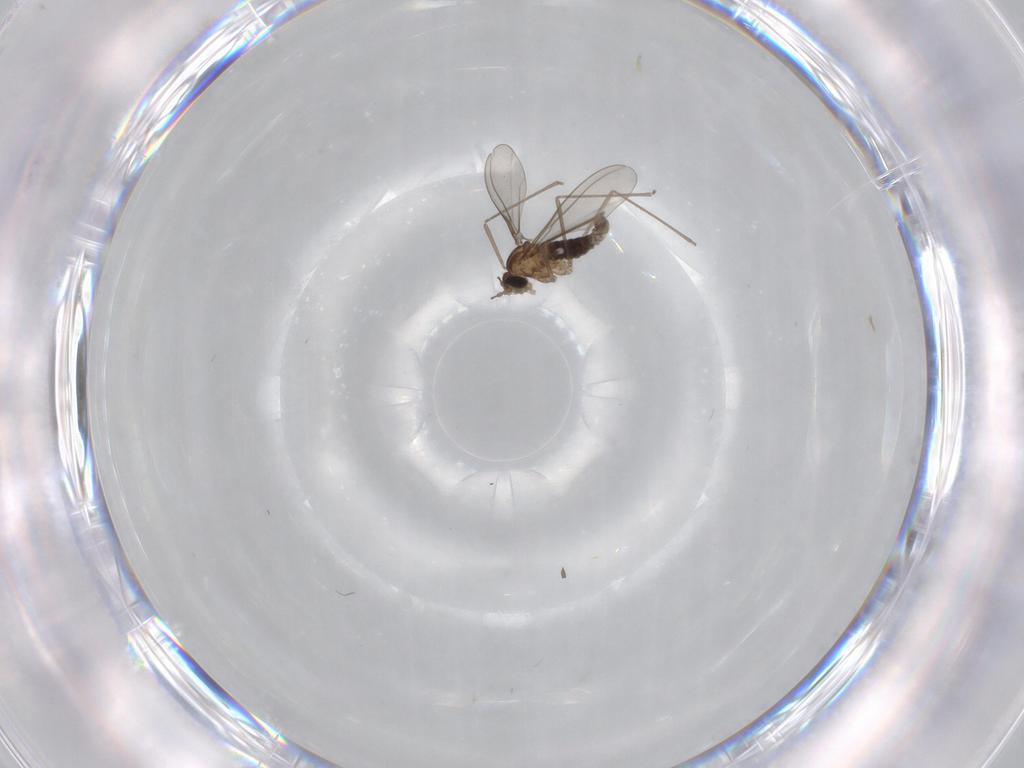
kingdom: Animalia
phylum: Arthropoda
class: Insecta
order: Diptera
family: Cecidomyiidae
